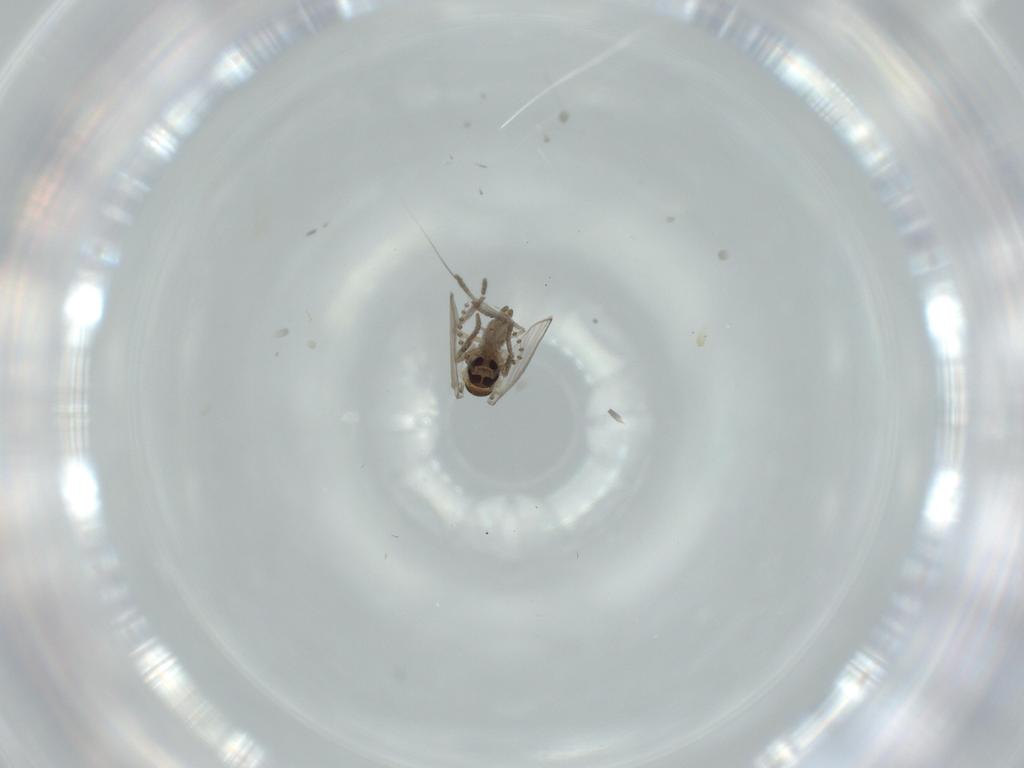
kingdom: Animalia
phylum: Arthropoda
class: Insecta
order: Diptera
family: Psychodidae
